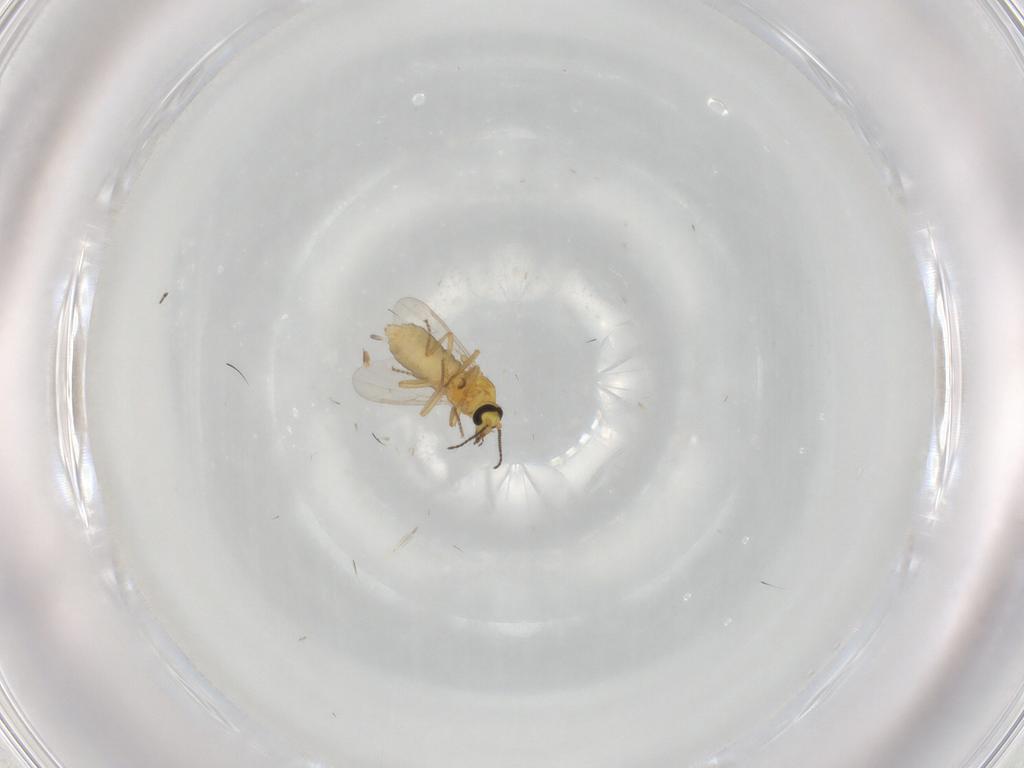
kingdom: Animalia
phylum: Arthropoda
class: Insecta
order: Diptera
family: Ceratopogonidae
